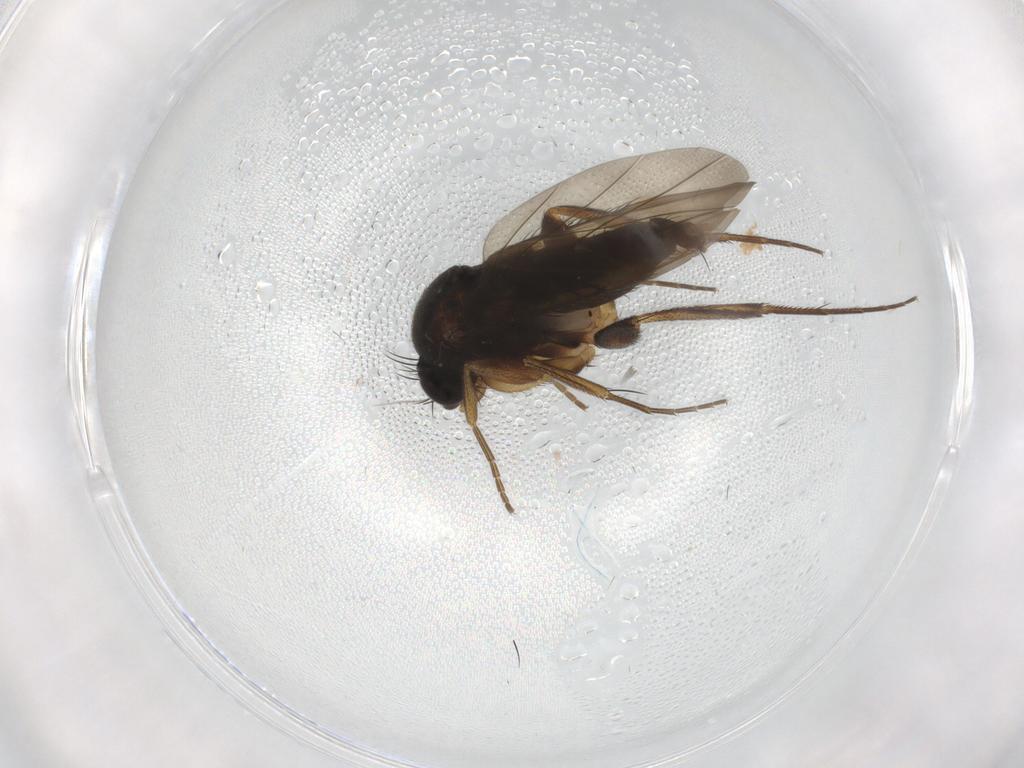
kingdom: Animalia
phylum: Arthropoda
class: Insecta
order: Diptera
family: Phoridae
